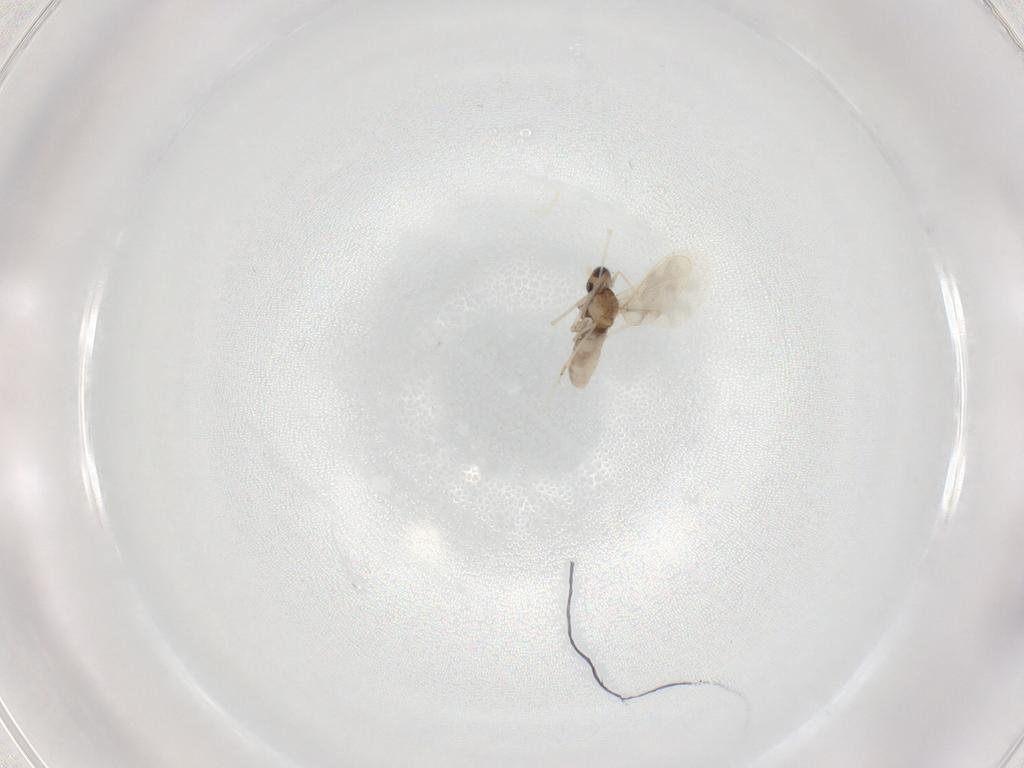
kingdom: Animalia
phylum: Arthropoda
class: Insecta
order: Diptera
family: Cecidomyiidae
